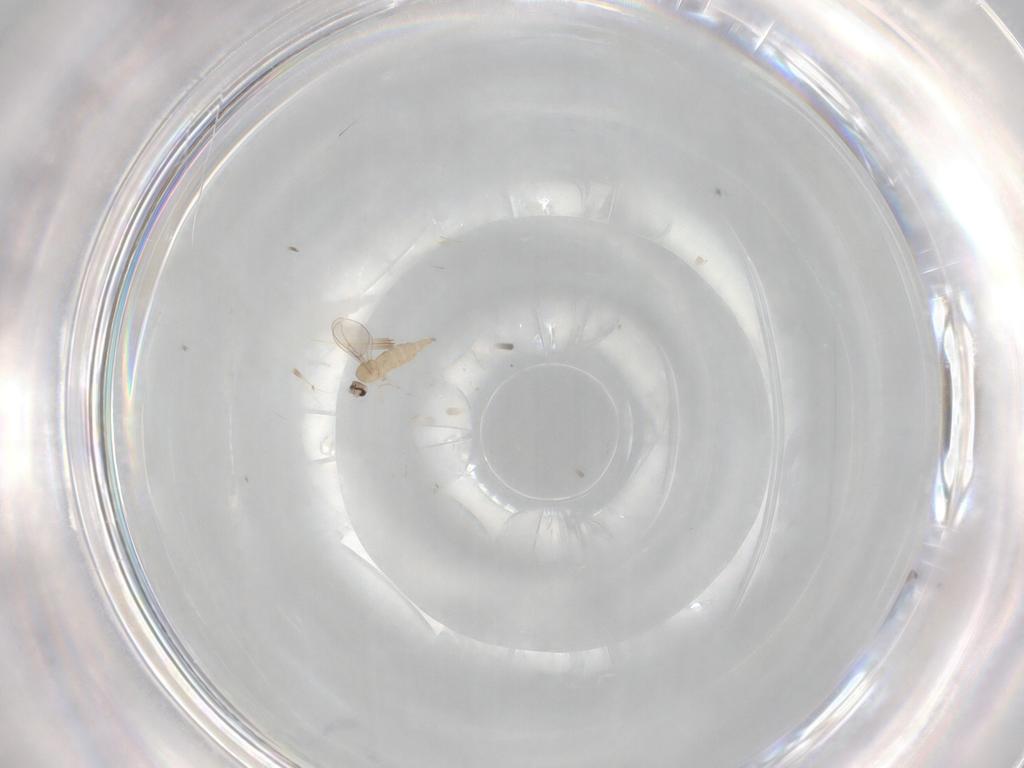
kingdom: Animalia
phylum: Arthropoda
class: Insecta
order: Diptera
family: Cecidomyiidae
